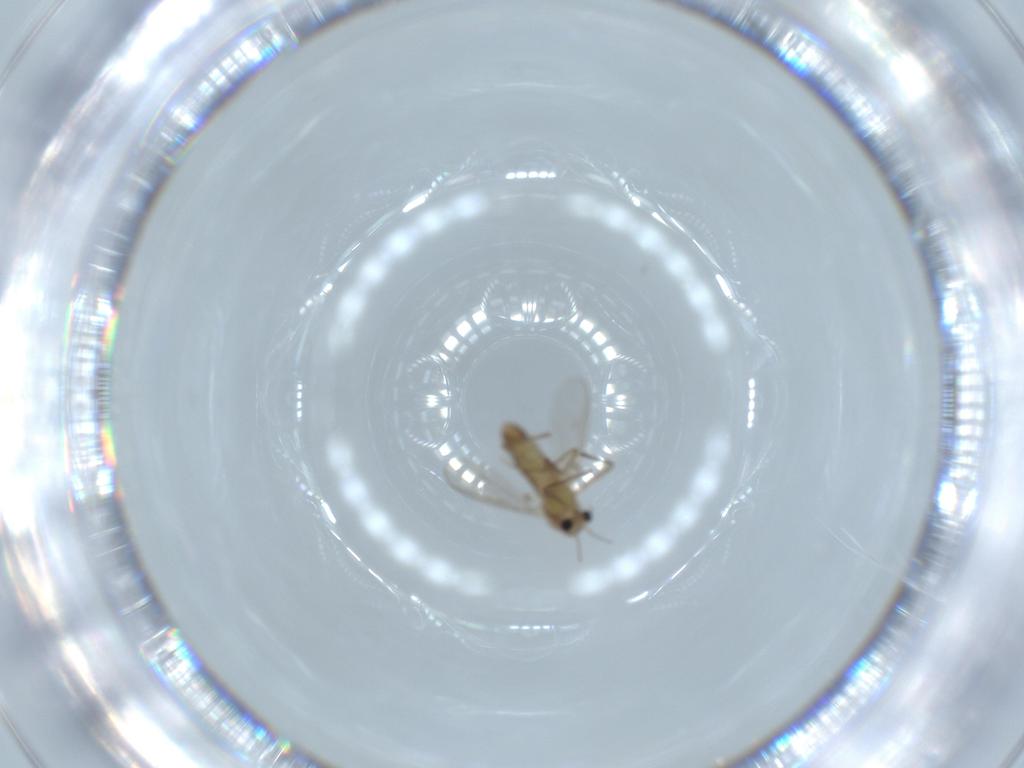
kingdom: Animalia
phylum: Arthropoda
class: Insecta
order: Diptera
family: Chironomidae
